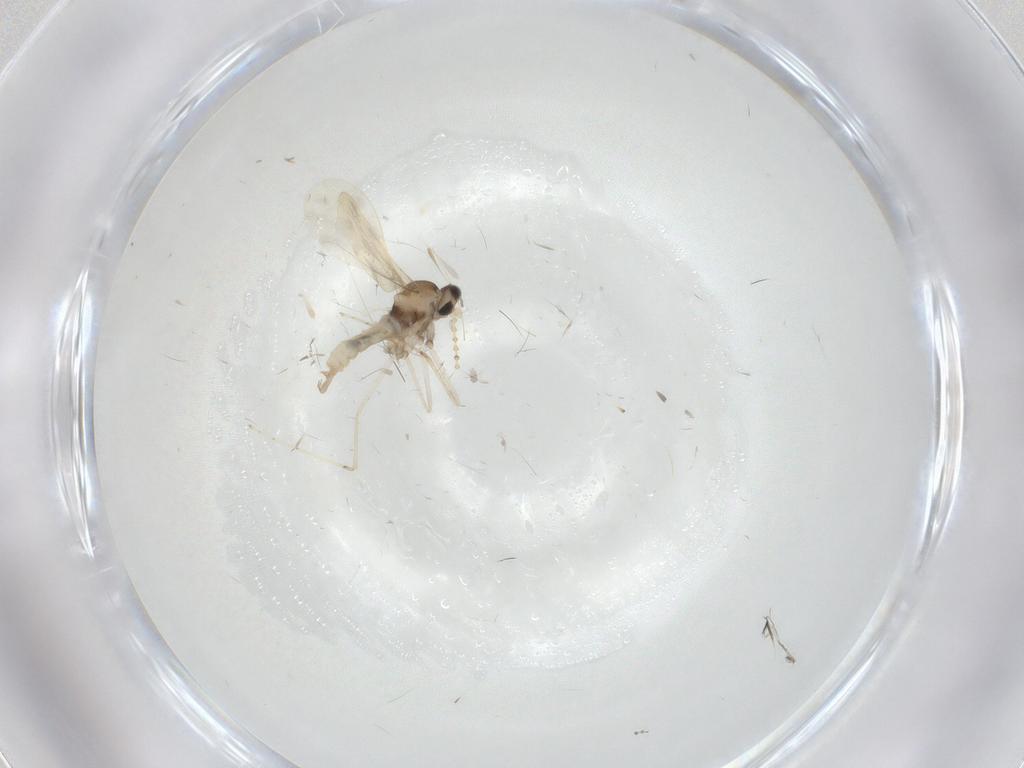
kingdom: Animalia
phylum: Arthropoda
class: Insecta
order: Diptera
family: Cecidomyiidae
